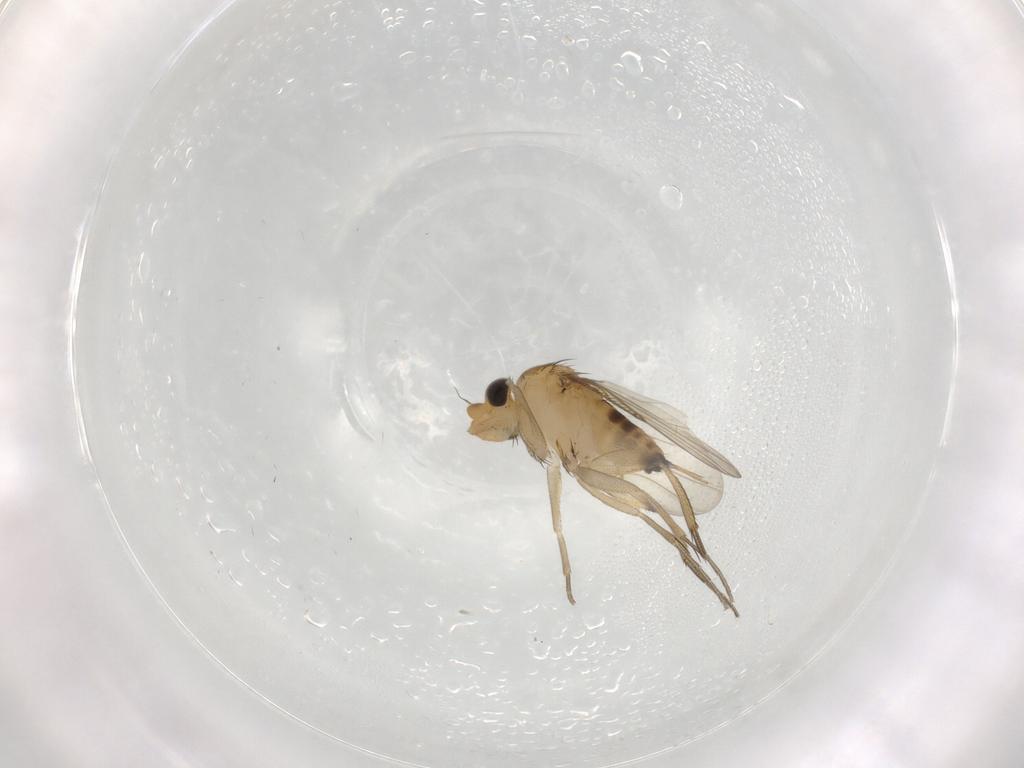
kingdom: Animalia
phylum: Arthropoda
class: Insecta
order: Diptera
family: Phoridae
